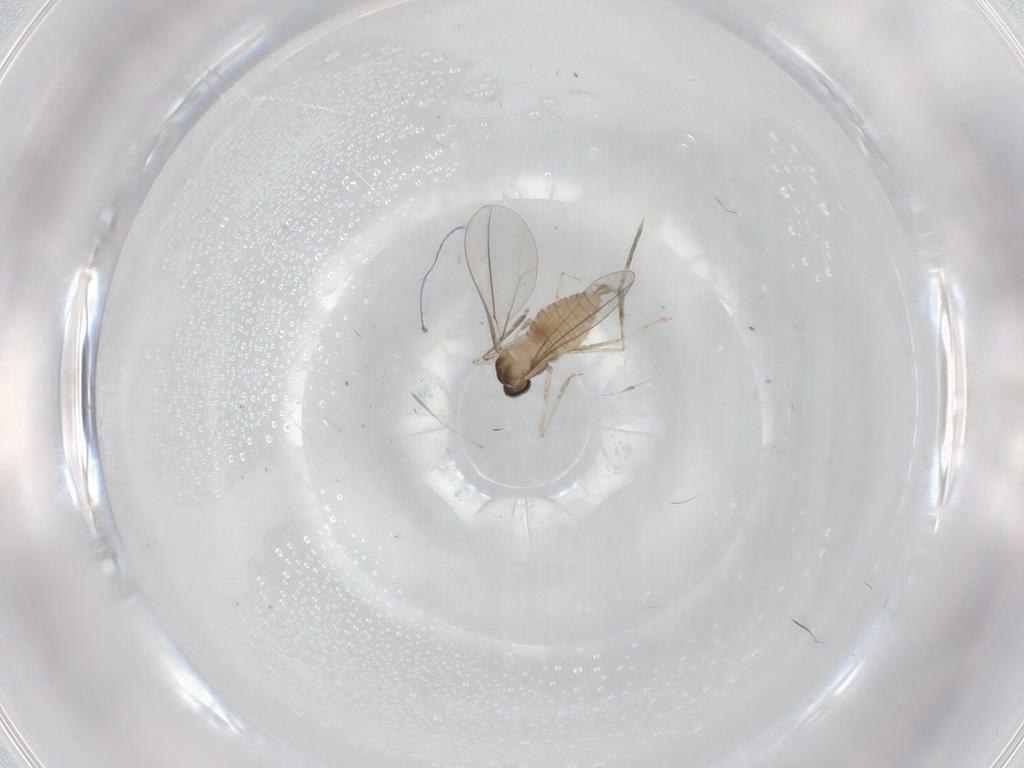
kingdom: Animalia
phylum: Arthropoda
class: Insecta
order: Diptera
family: Cecidomyiidae
